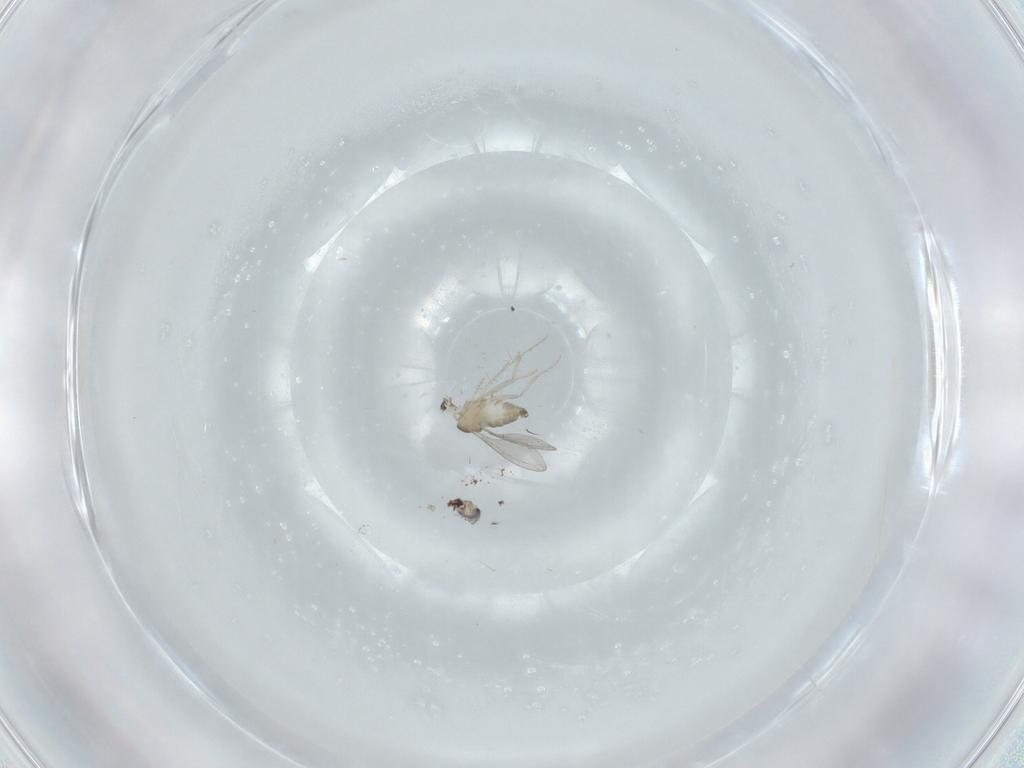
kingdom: Animalia
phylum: Arthropoda
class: Insecta
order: Diptera
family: Cecidomyiidae
